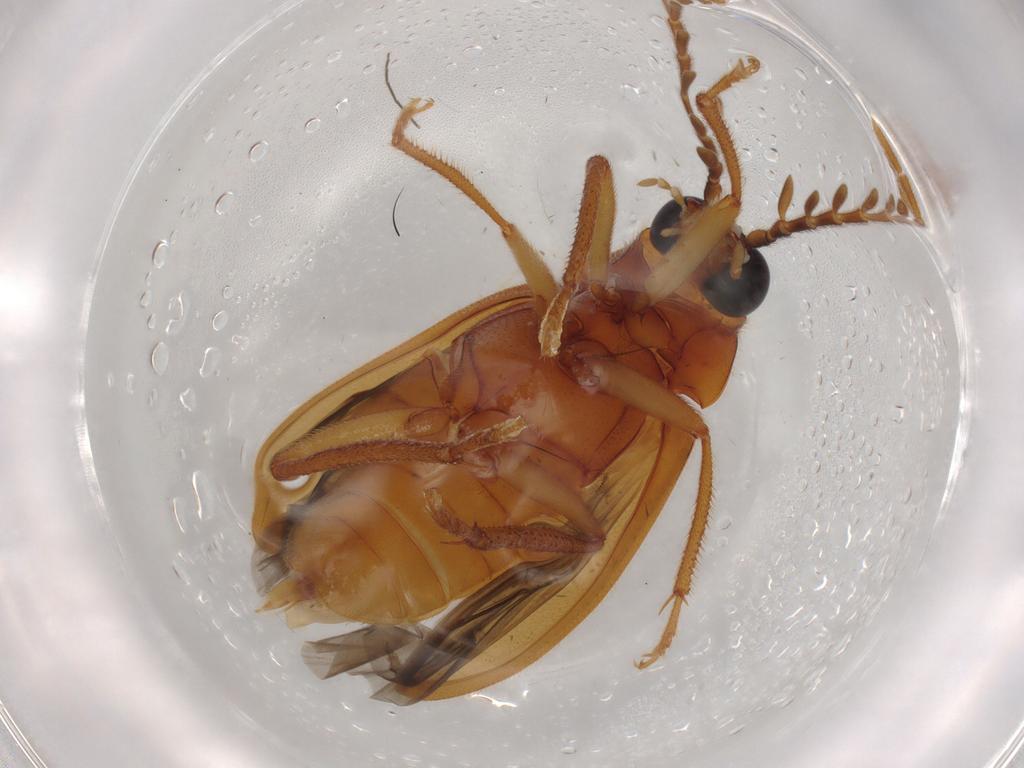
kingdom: Animalia
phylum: Arthropoda
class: Insecta
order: Coleoptera
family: Ptilodactylidae
